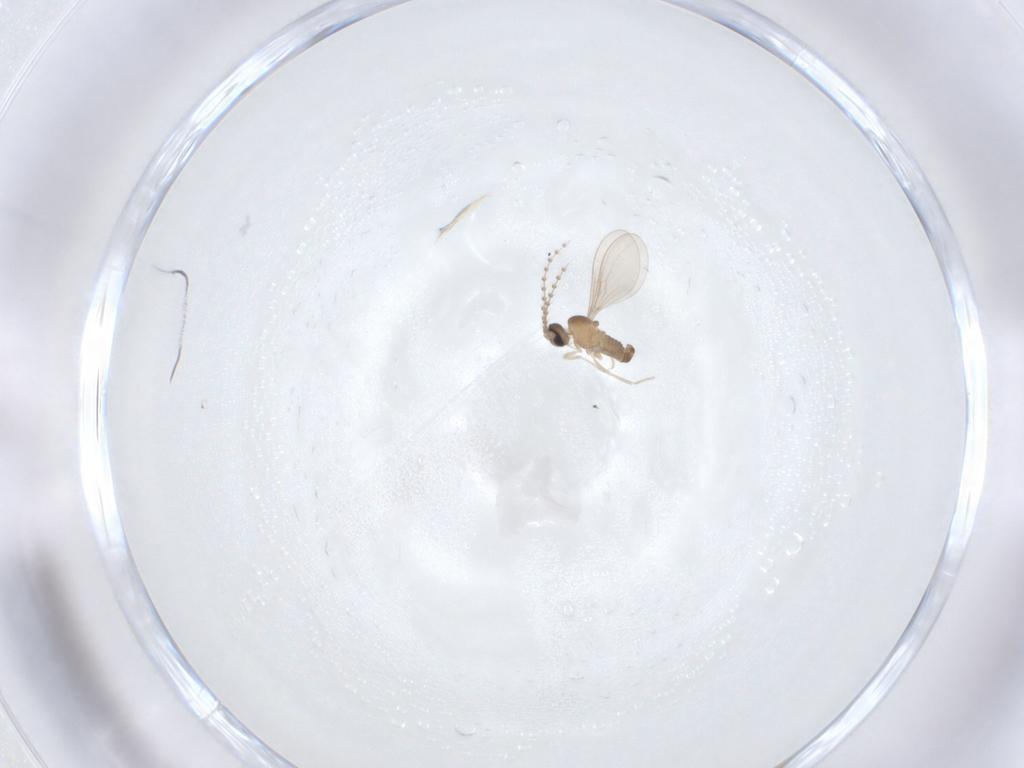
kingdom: Animalia
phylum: Arthropoda
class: Insecta
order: Diptera
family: Cecidomyiidae
